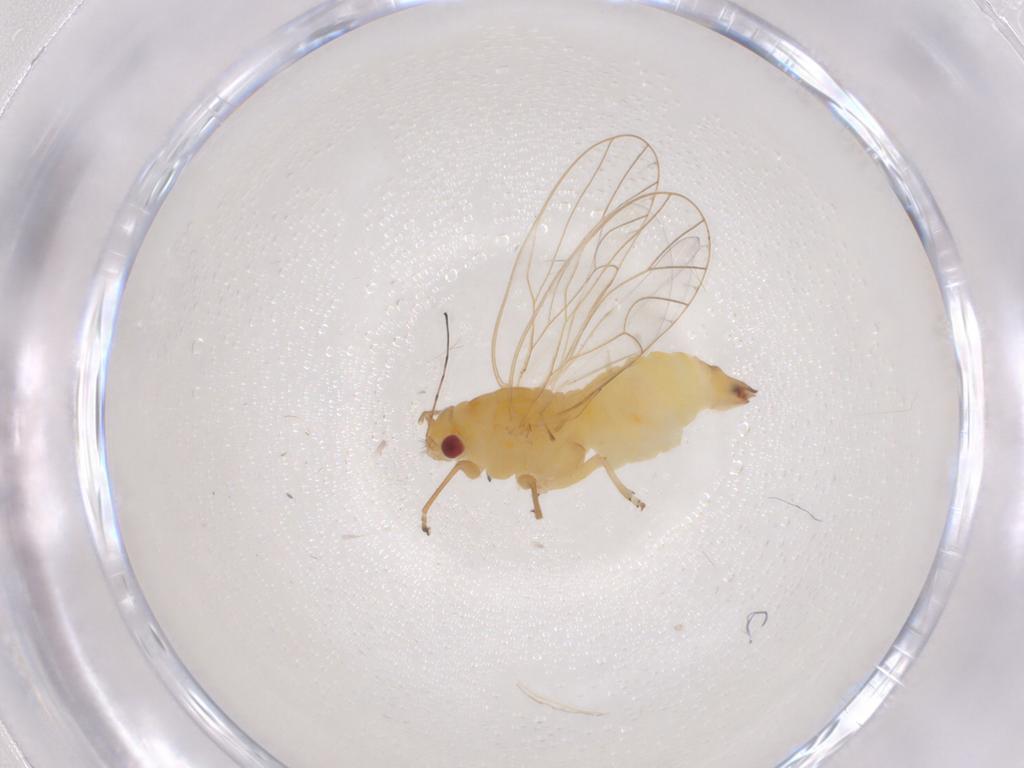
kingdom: Animalia
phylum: Arthropoda
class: Insecta
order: Hemiptera
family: Psyllidae
